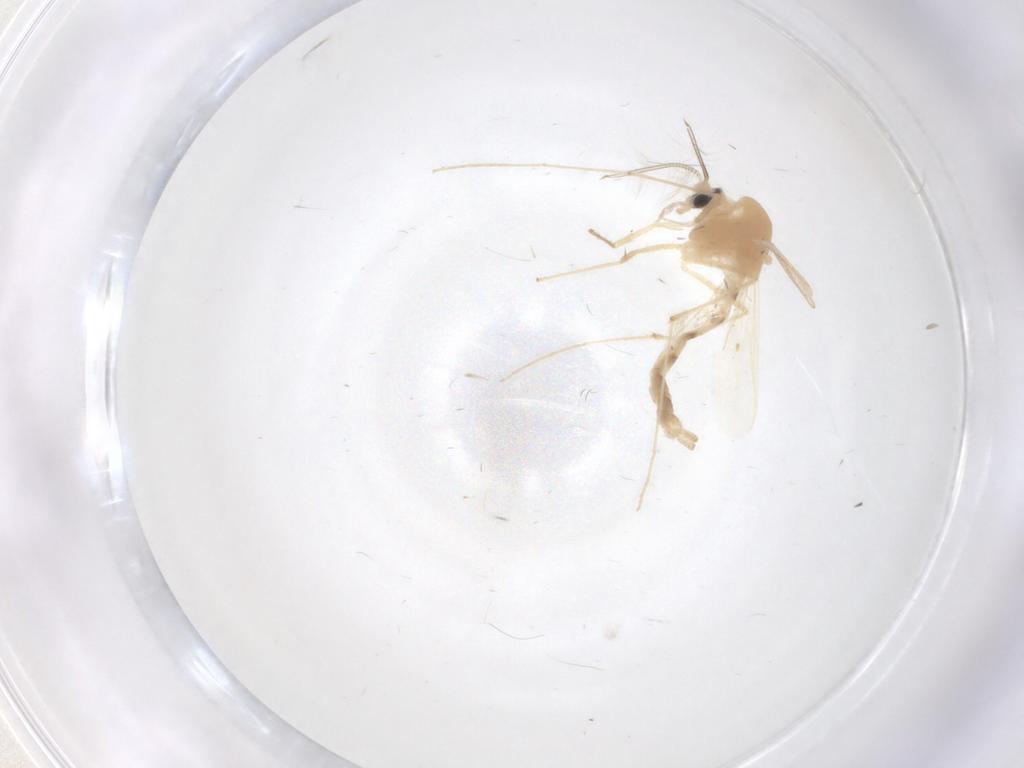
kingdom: Animalia
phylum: Arthropoda
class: Insecta
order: Diptera
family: Chironomidae
